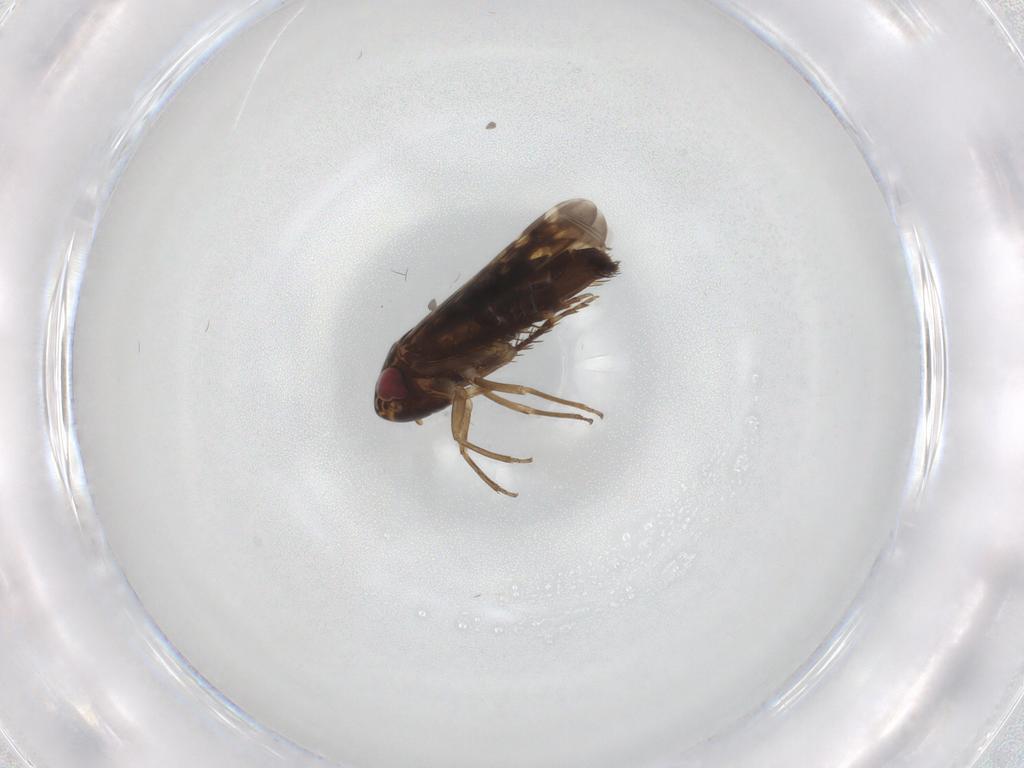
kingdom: Animalia
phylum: Arthropoda
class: Insecta
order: Hemiptera
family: Cicadellidae
